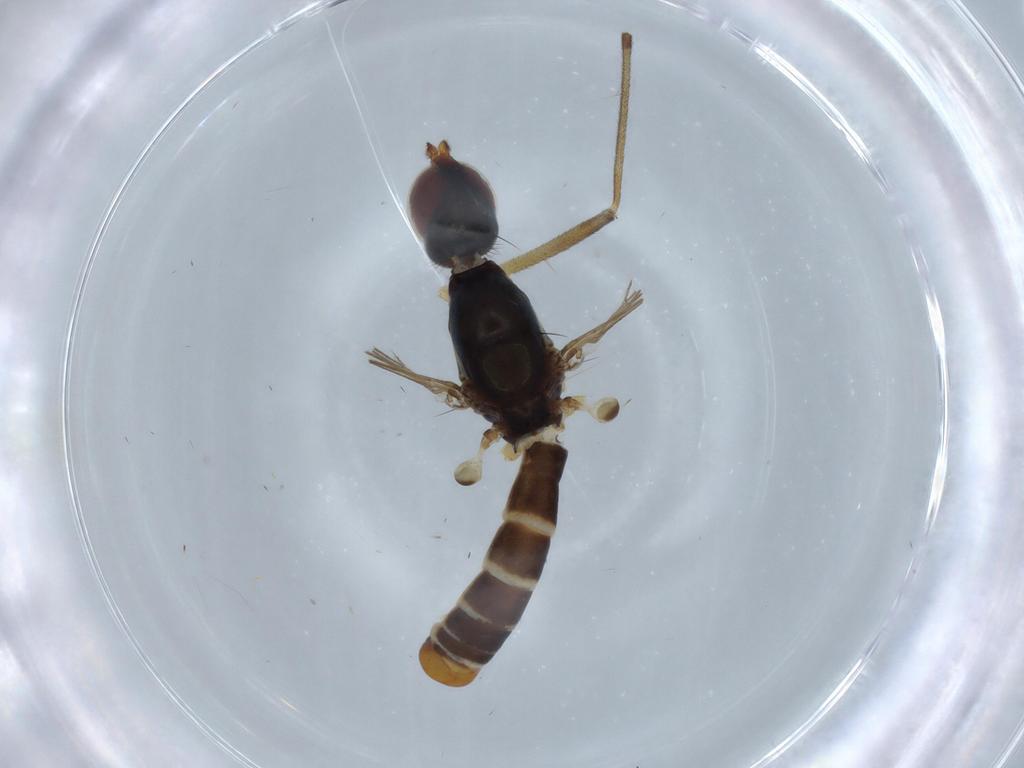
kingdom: Animalia
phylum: Arthropoda
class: Insecta
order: Diptera
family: Micropezidae
